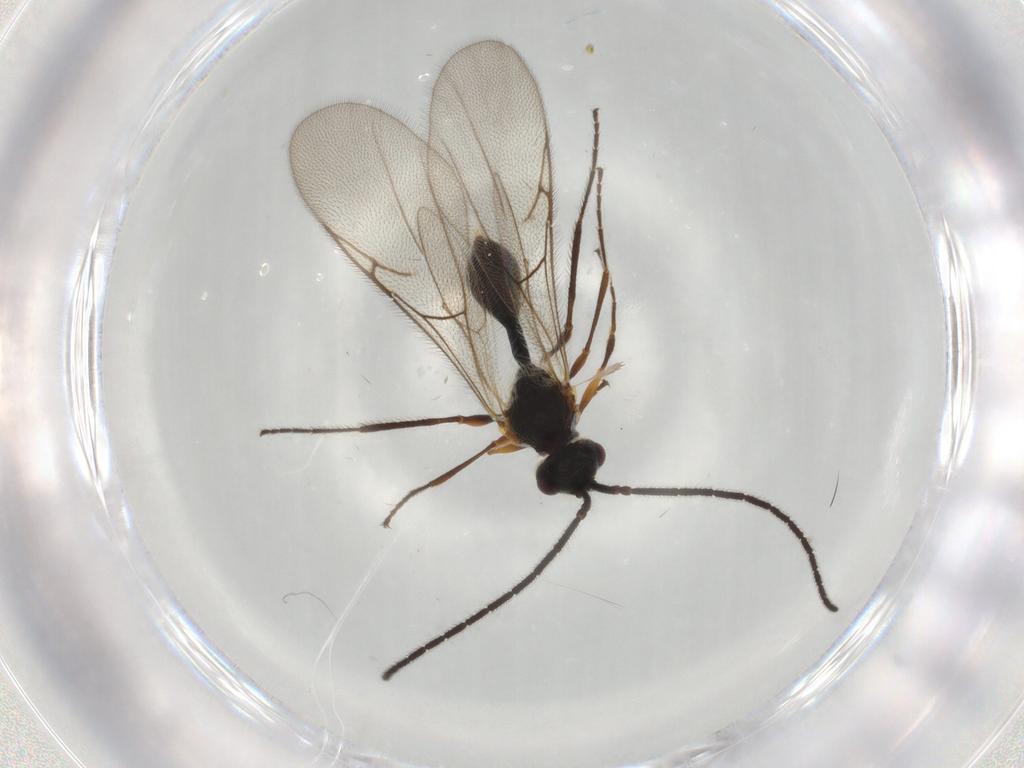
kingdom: Animalia
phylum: Arthropoda
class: Insecta
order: Hymenoptera
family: Diapriidae
